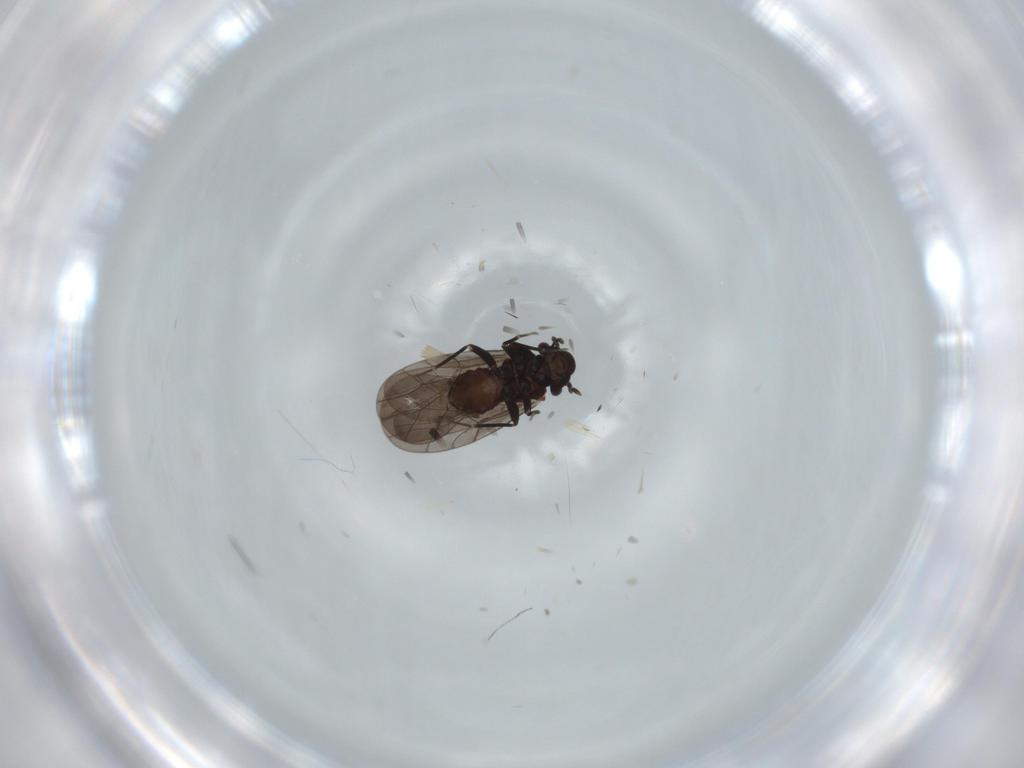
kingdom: Animalia
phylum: Arthropoda
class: Insecta
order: Psocodea
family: Lepidopsocidae
